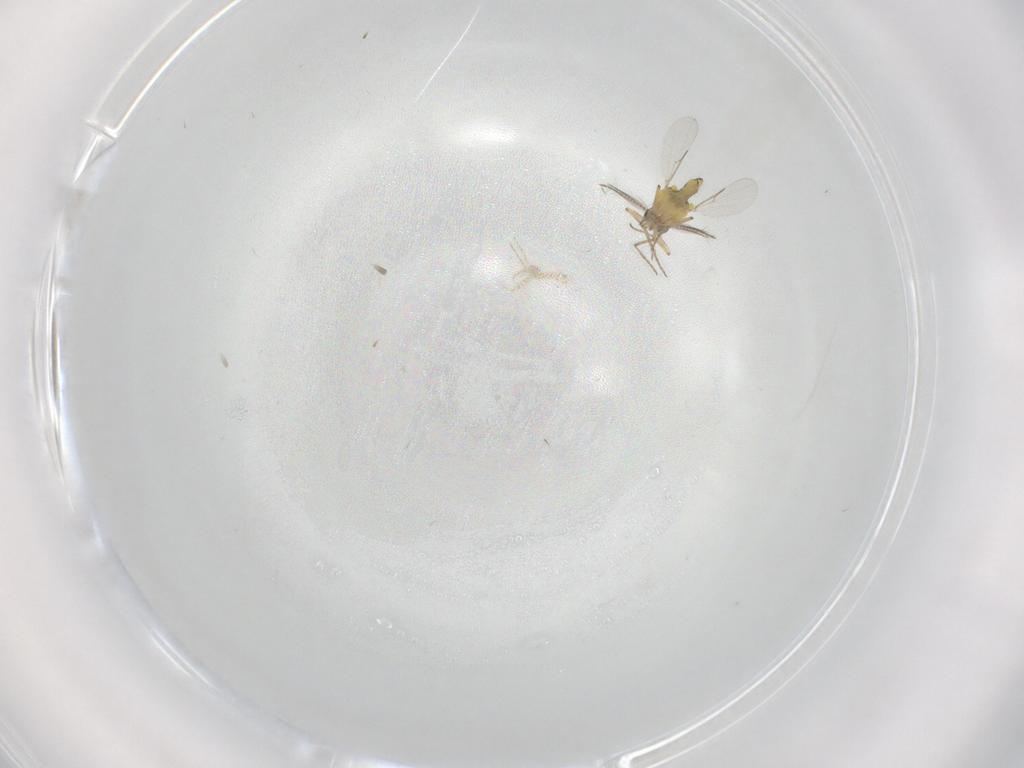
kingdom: Animalia
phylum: Arthropoda
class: Insecta
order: Diptera
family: Ceratopogonidae
